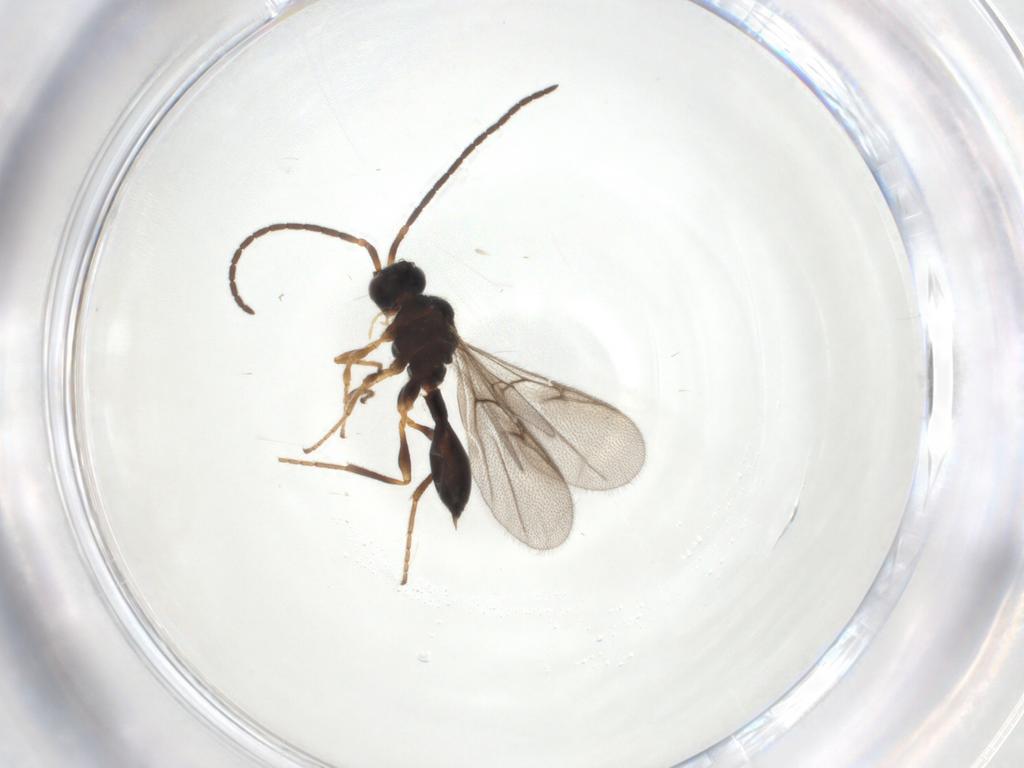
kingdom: Animalia
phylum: Arthropoda
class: Insecta
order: Hymenoptera
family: Diapriidae
